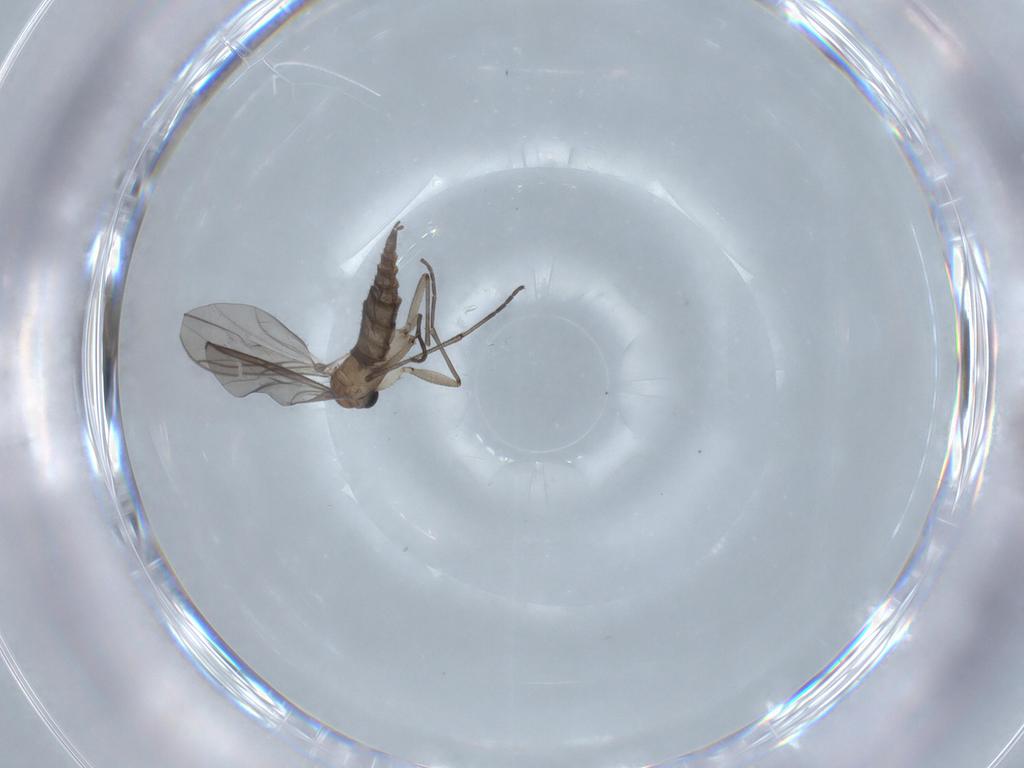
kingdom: Animalia
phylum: Arthropoda
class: Insecta
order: Diptera
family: Sciaridae
